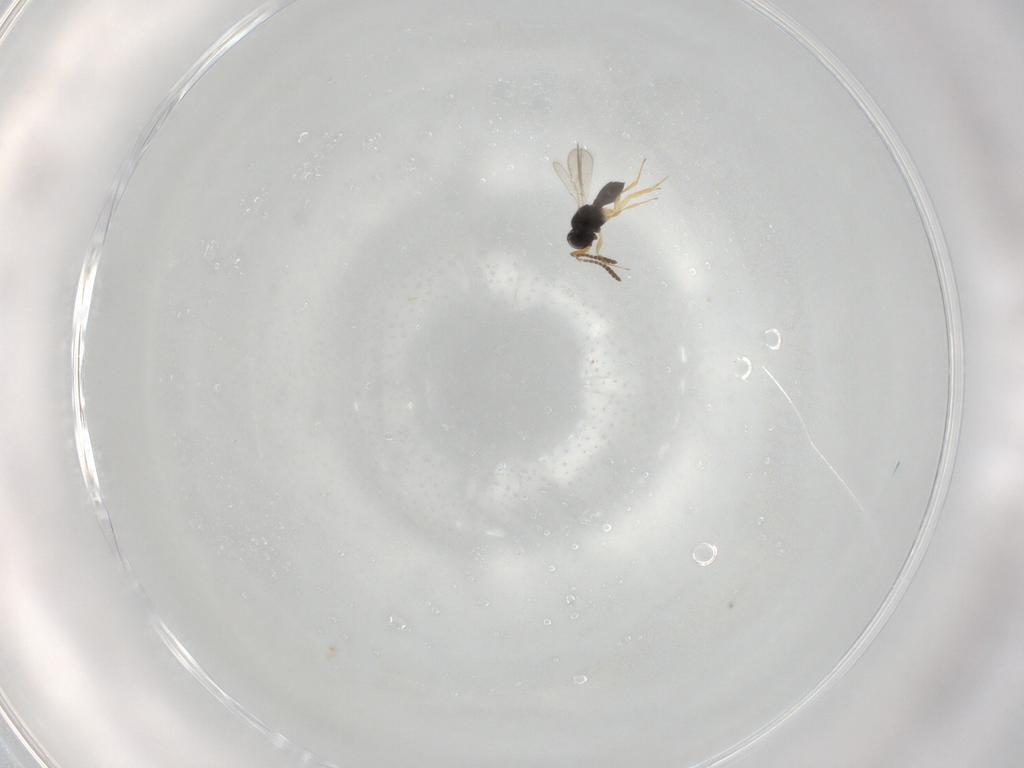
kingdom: Animalia
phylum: Arthropoda
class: Insecta
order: Hymenoptera
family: Scelionidae
